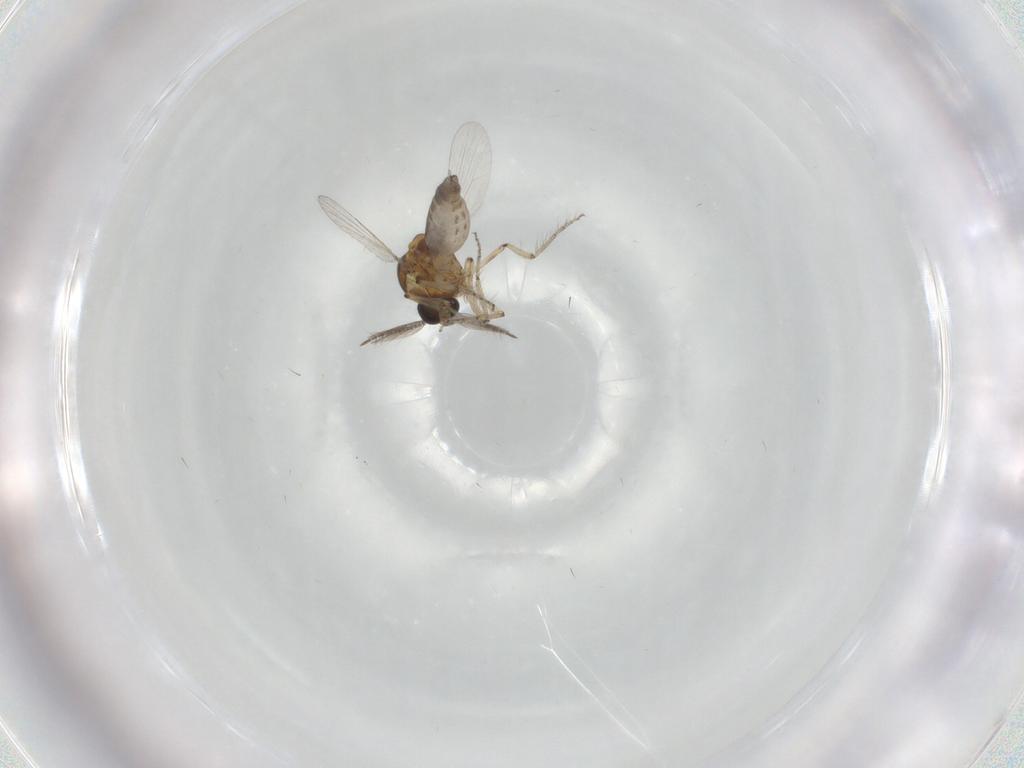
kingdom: Animalia
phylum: Arthropoda
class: Insecta
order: Diptera
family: Ceratopogonidae
